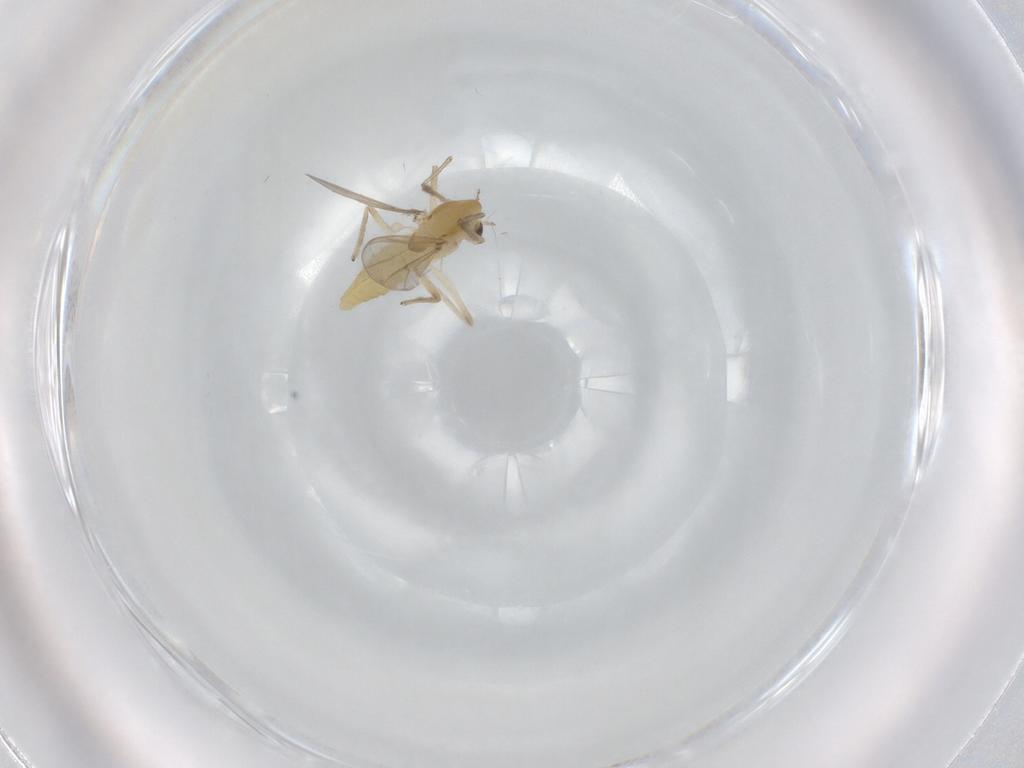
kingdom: Animalia
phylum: Arthropoda
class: Insecta
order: Diptera
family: Chironomidae
